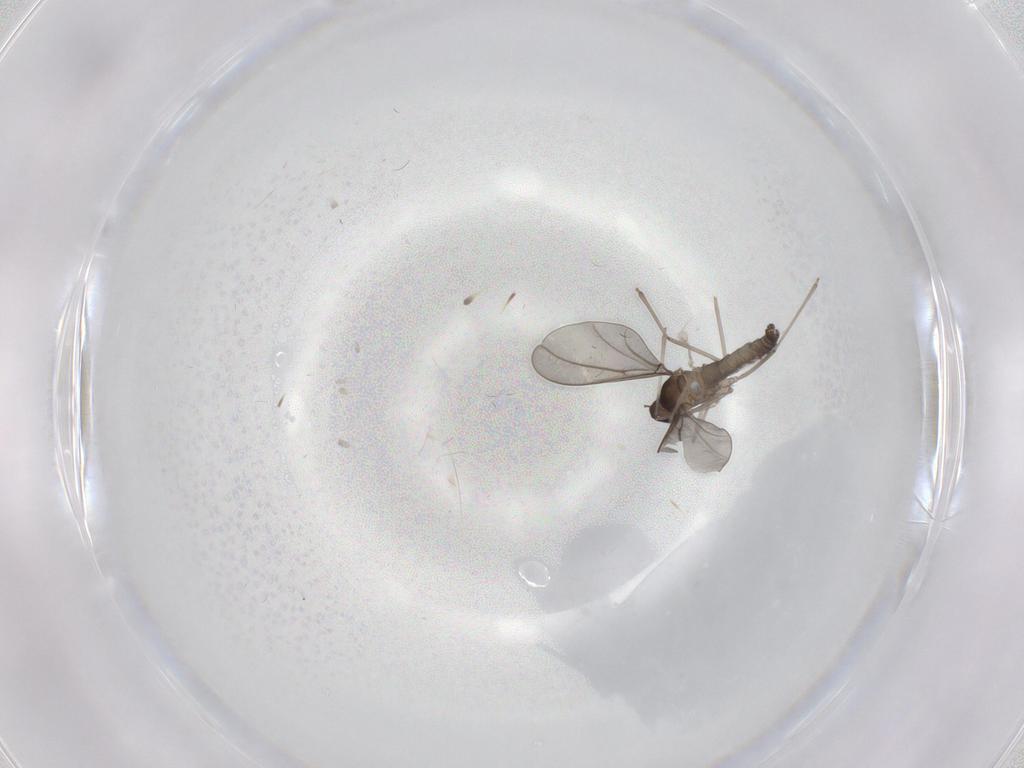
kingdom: Animalia
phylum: Arthropoda
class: Insecta
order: Diptera
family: Cecidomyiidae
